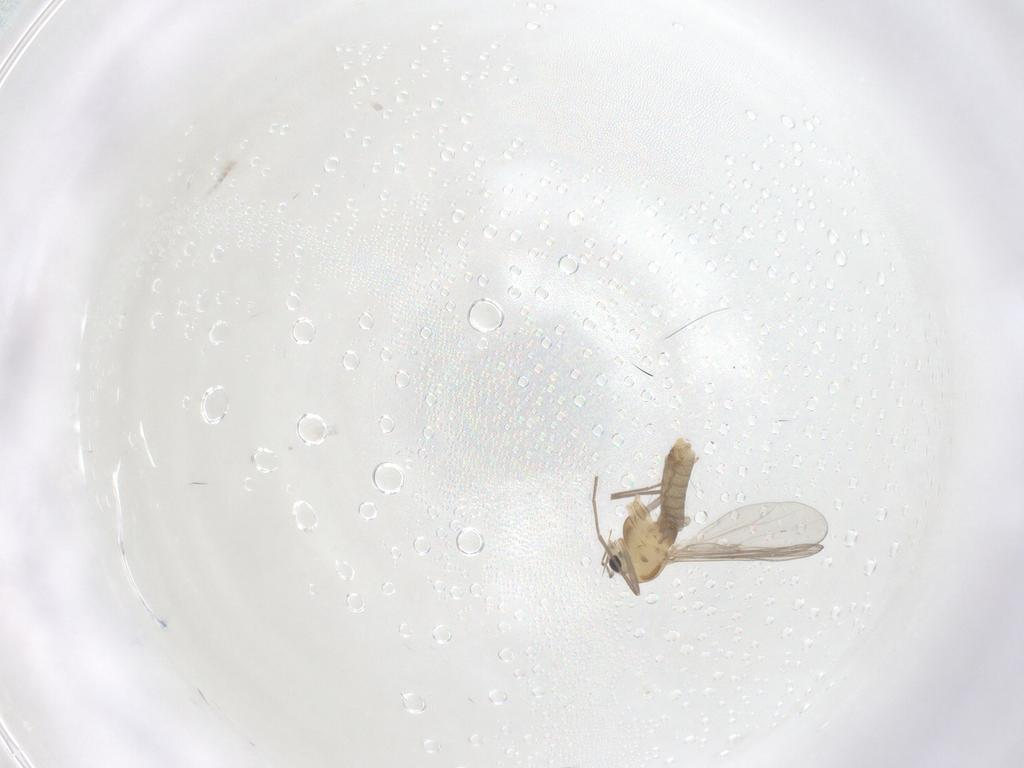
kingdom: Animalia
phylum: Arthropoda
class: Insecta
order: Diptera
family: Chironomidae
